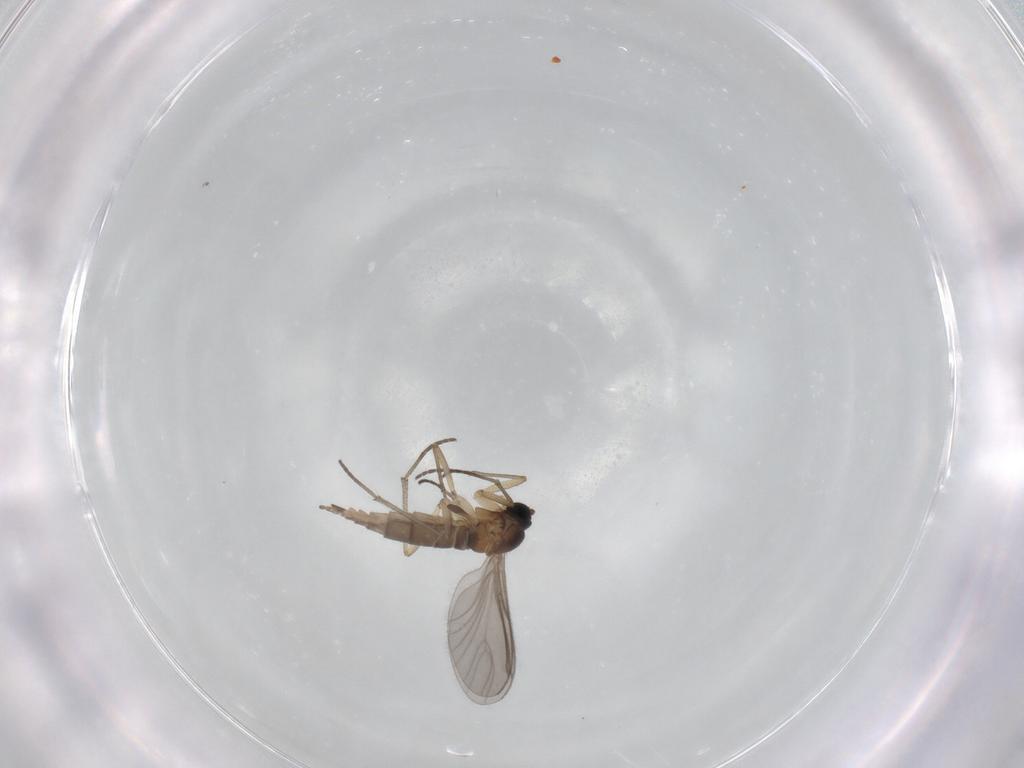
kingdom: Animalia
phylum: Arthropoda
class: Insecta
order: Diptera
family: Sciaridae
